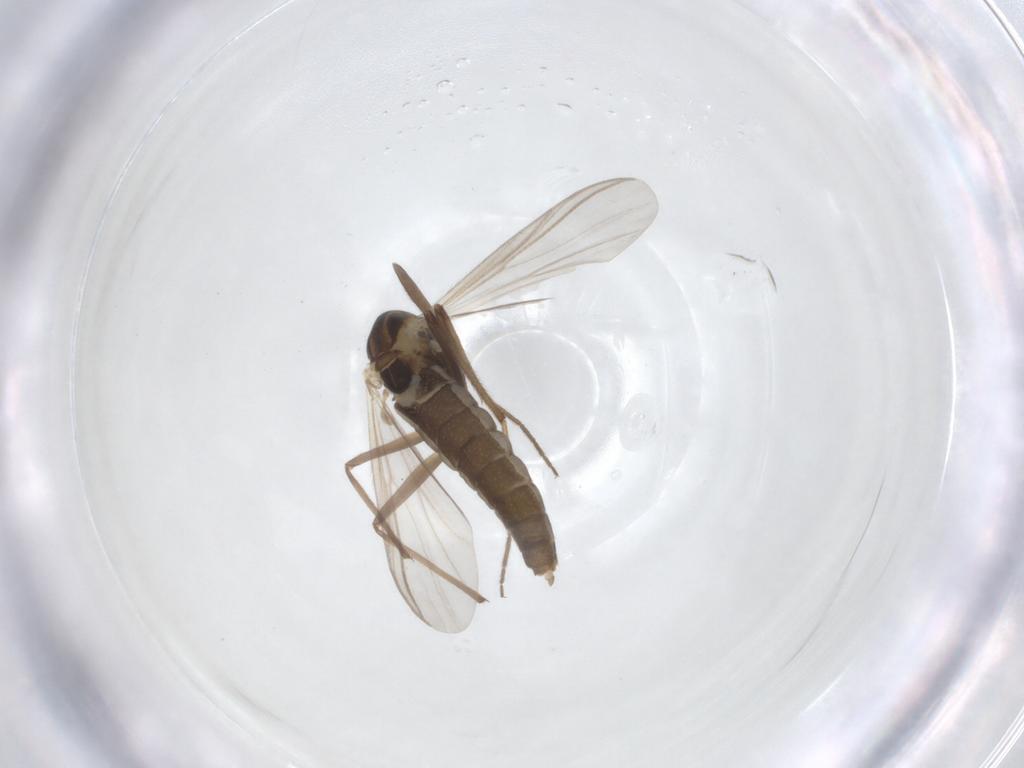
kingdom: Animalia
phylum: Arthropoda
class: Insecta
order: Diptera
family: Chironomidae
